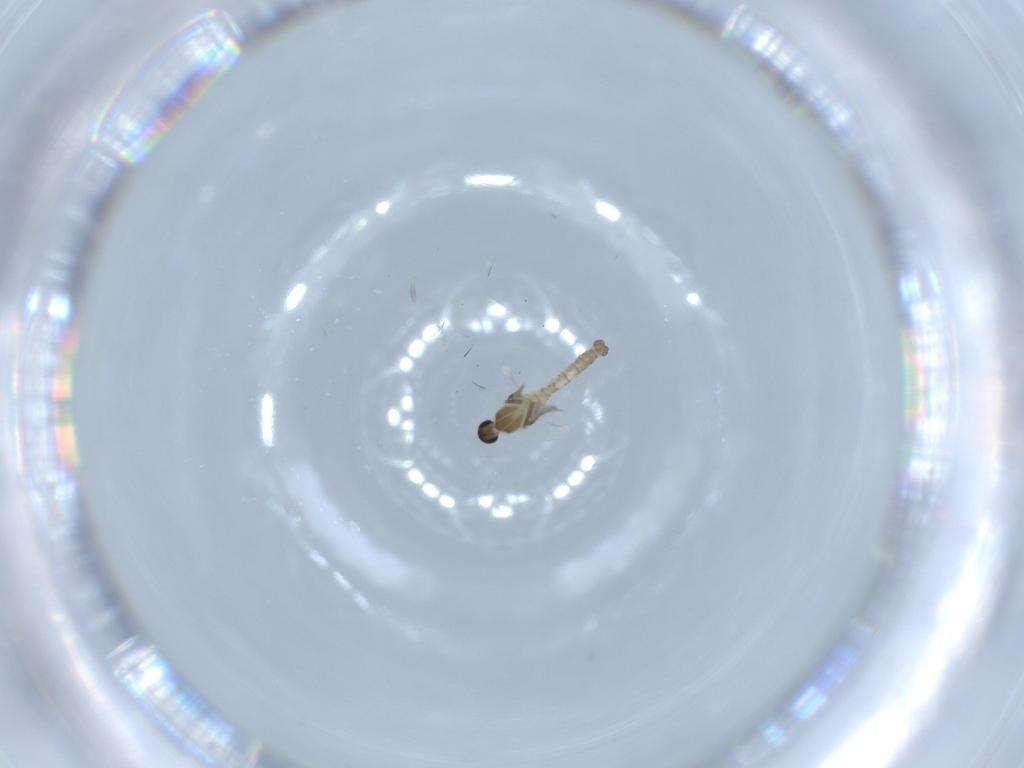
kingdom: Animalia
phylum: Arthropoda
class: Insecta
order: Diptera
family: Cecidomyiidae
